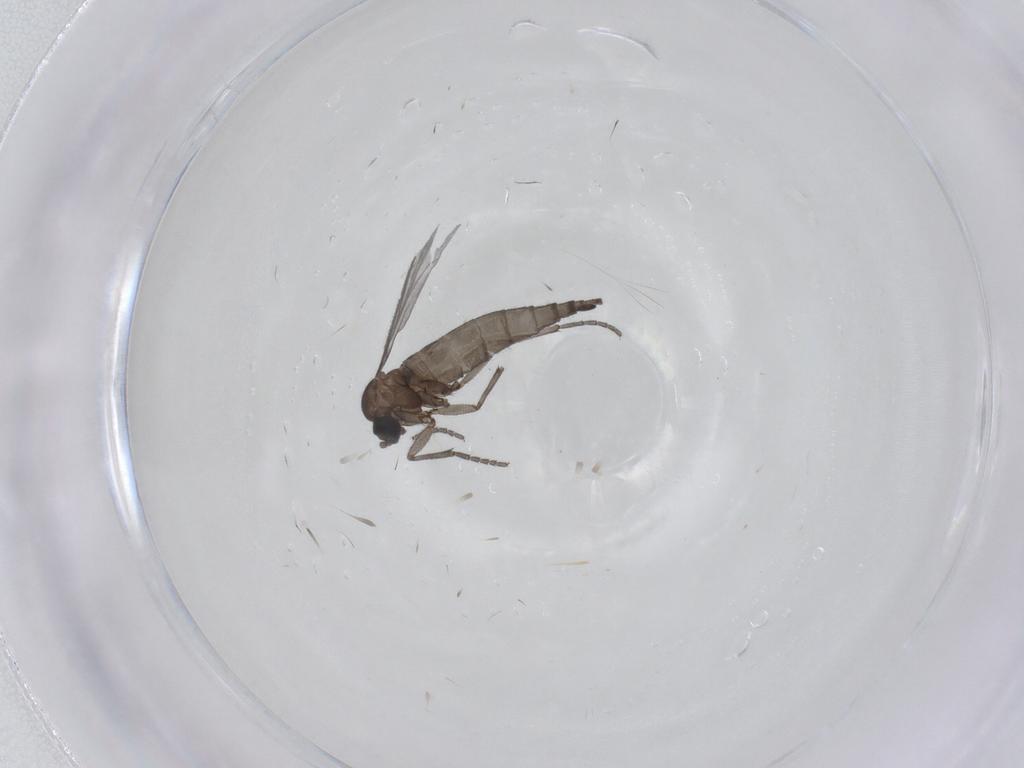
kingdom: Animalia
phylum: Arthropoda
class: Insecta
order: Diptera
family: Sciaridae
